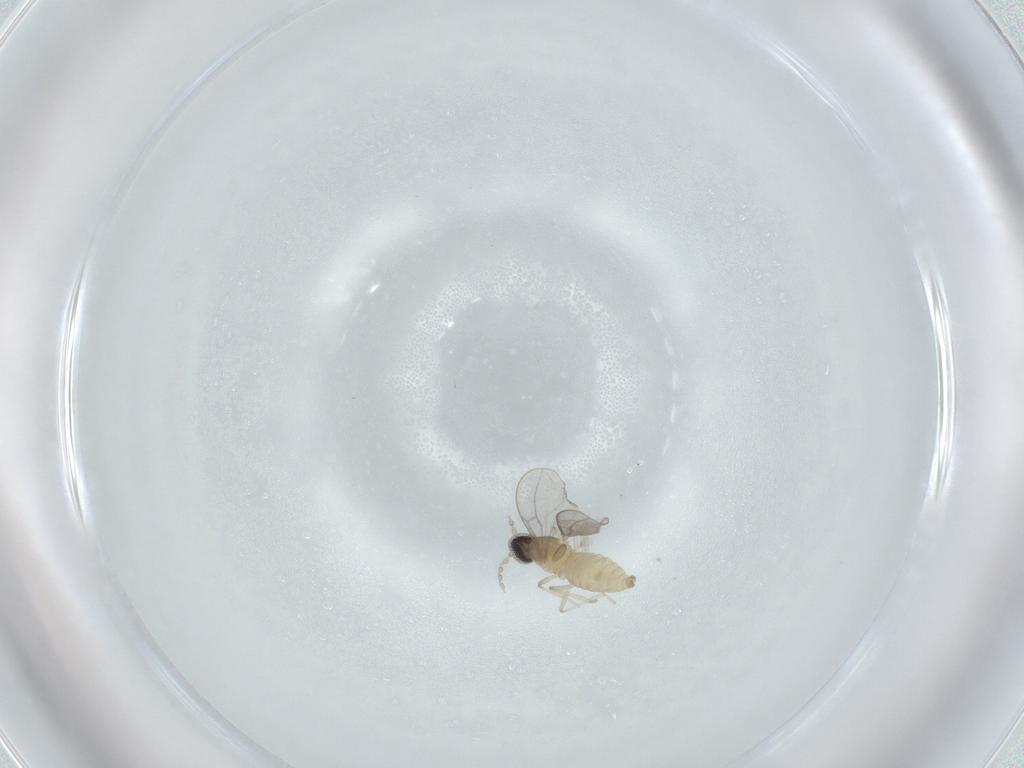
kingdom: Animalia
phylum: Arthropoda
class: Insecta
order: Diptera
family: Cecidomyiidae
